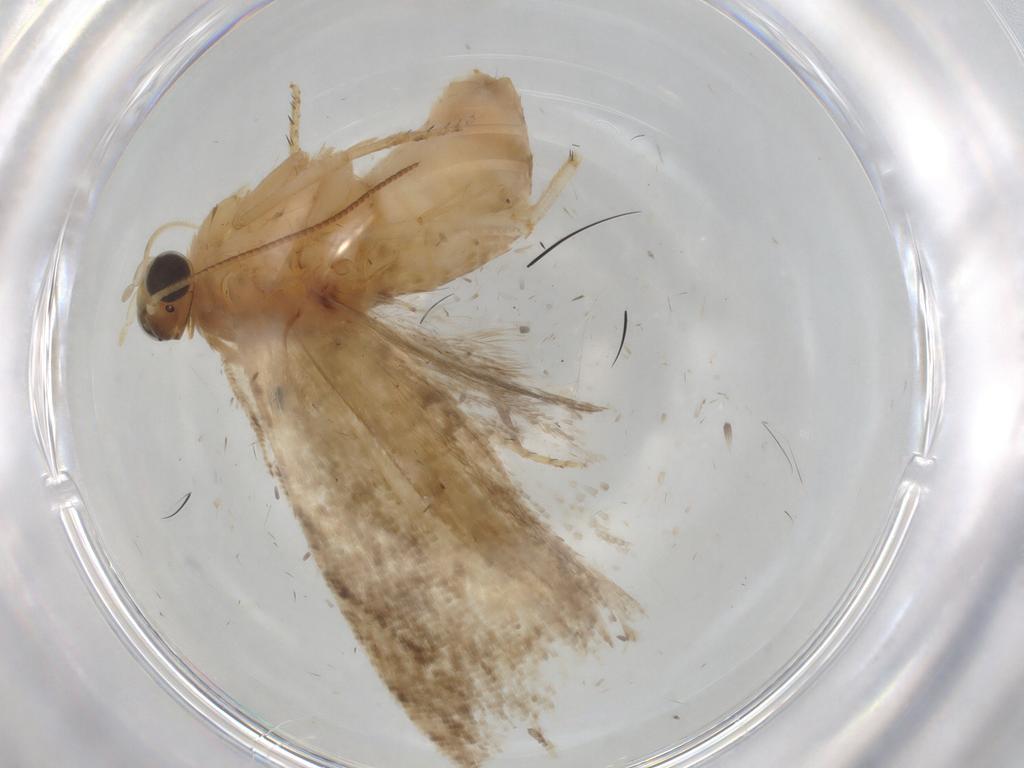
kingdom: Animalia
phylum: Arthropoda
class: Insecta
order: Lepidoptera
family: Tortricidae
